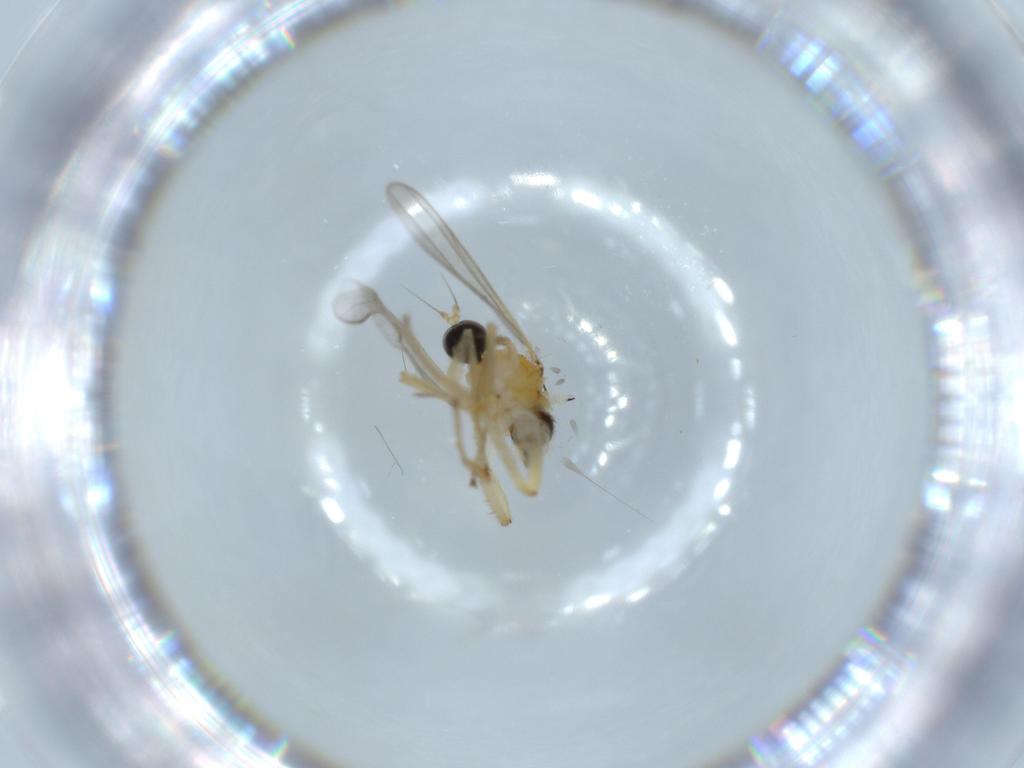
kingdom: Animalia
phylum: Arthropoda
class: Insecta
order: Diptera
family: Hybotidae
